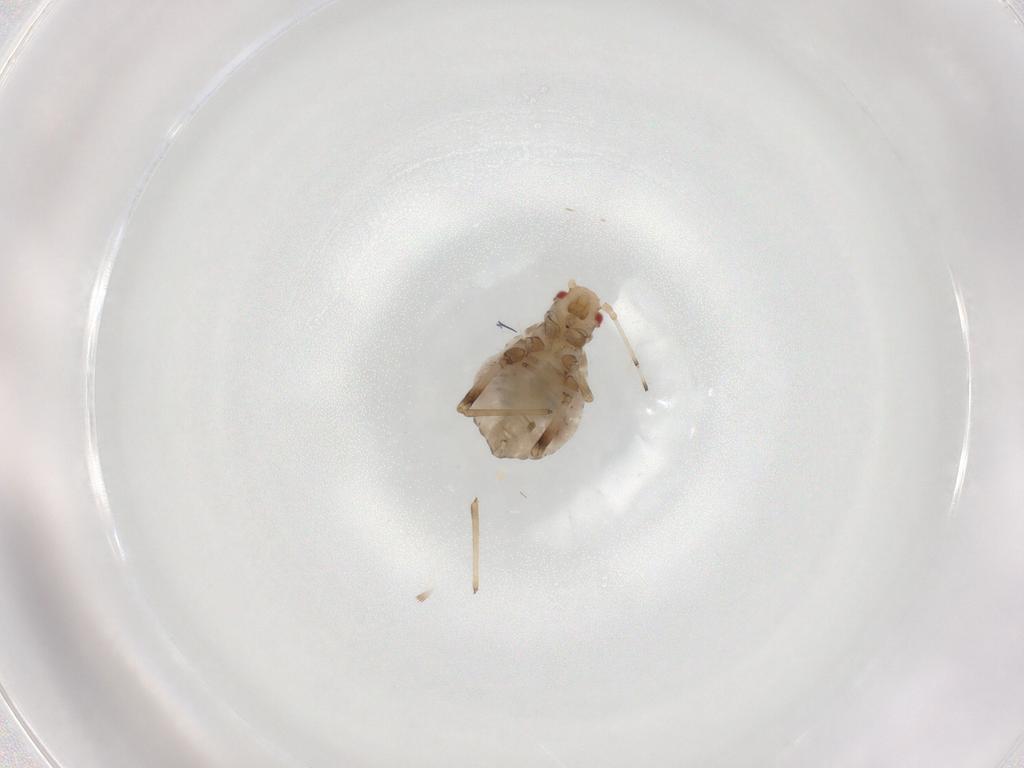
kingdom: Animalia
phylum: Arthropoda
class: Insecta
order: Hemiptera
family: Aphididae
